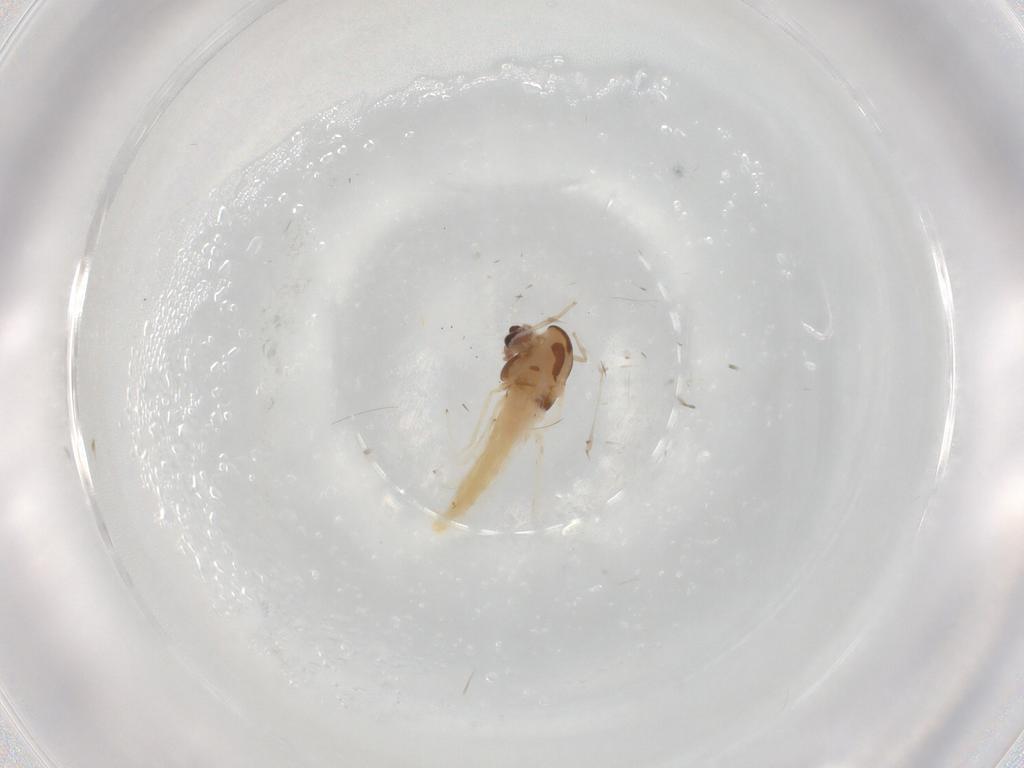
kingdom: Animalia
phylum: Arthropoda
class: Insecta
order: Diptera
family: Chironomidae
